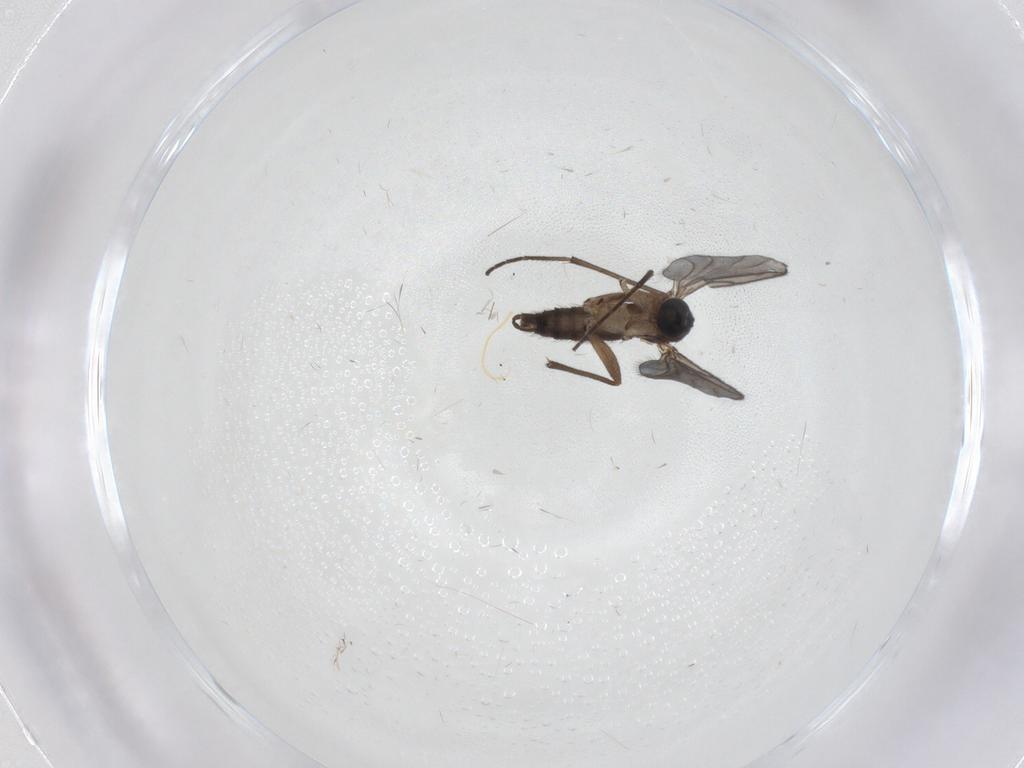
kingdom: Animalia
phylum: Arthropoda
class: Insecta
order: Diptera
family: Sciaridae
